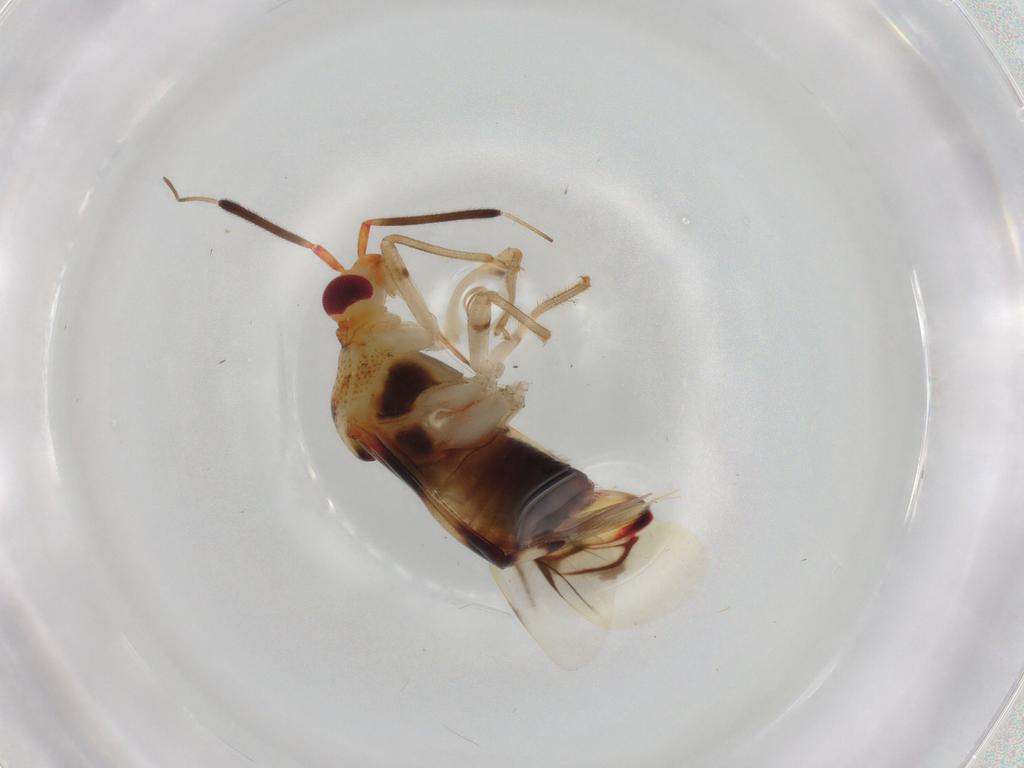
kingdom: Animalia
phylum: Arthropoda
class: Insecta
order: Hemiptera
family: Miridae
